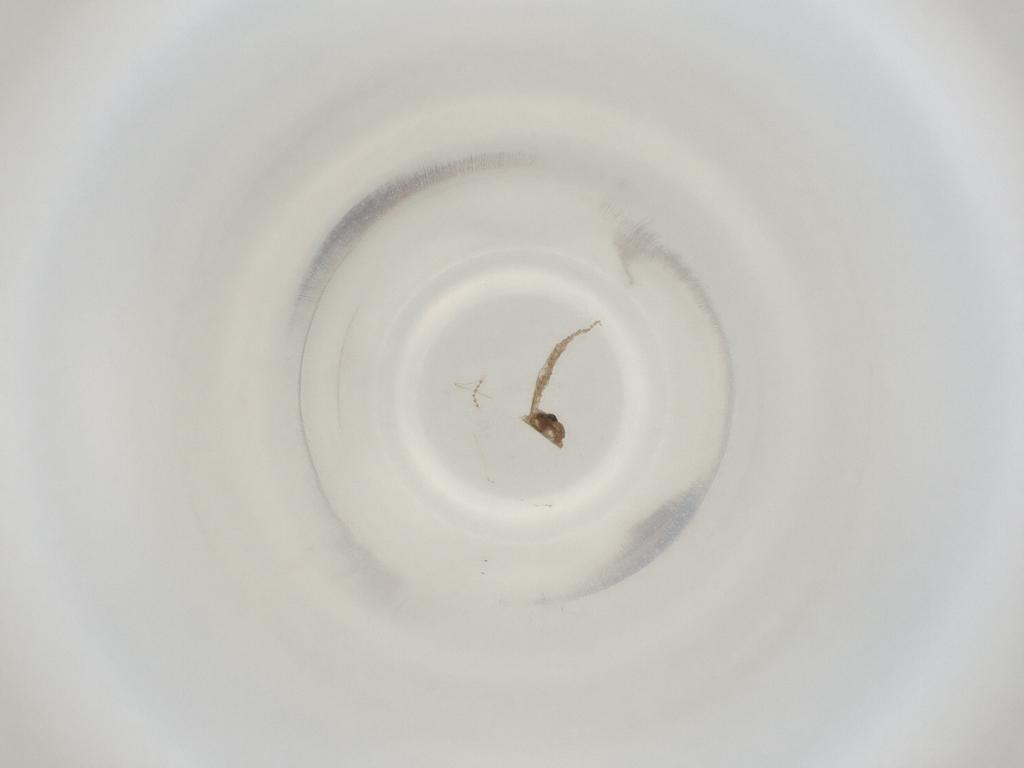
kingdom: Animalia
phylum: Arthropoda
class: Insecta
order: Diptera
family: Cecidomyiidae
